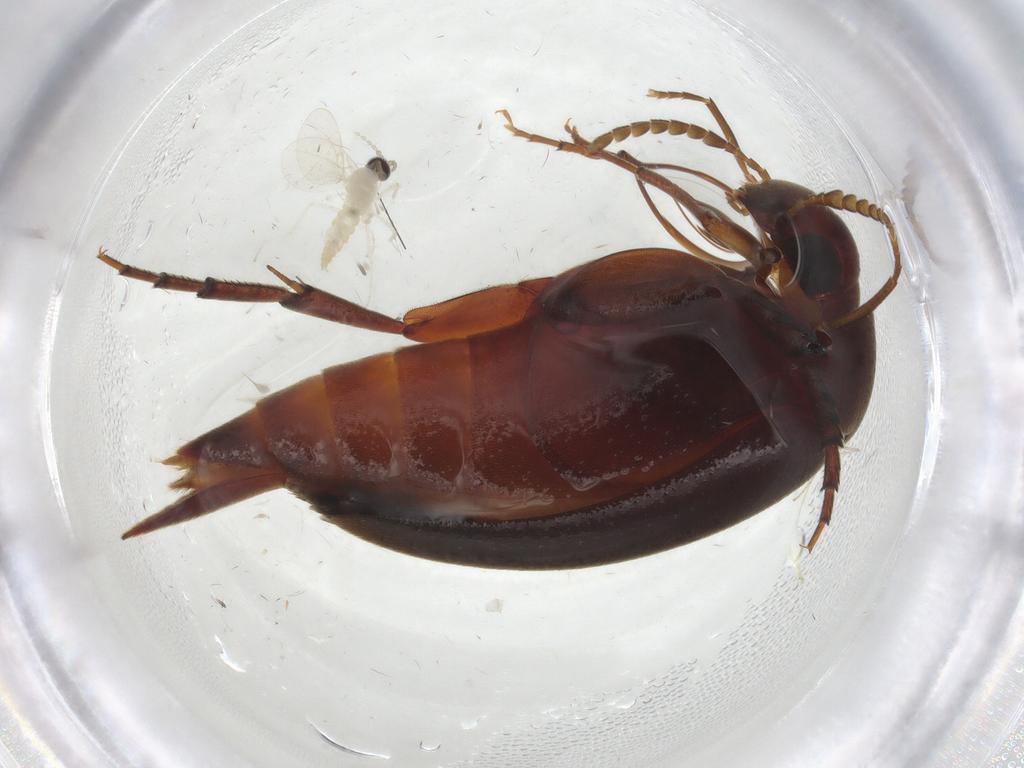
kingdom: Animalia
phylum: Arthropoda
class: Insecta
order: Coleoptera
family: Mordellidae
